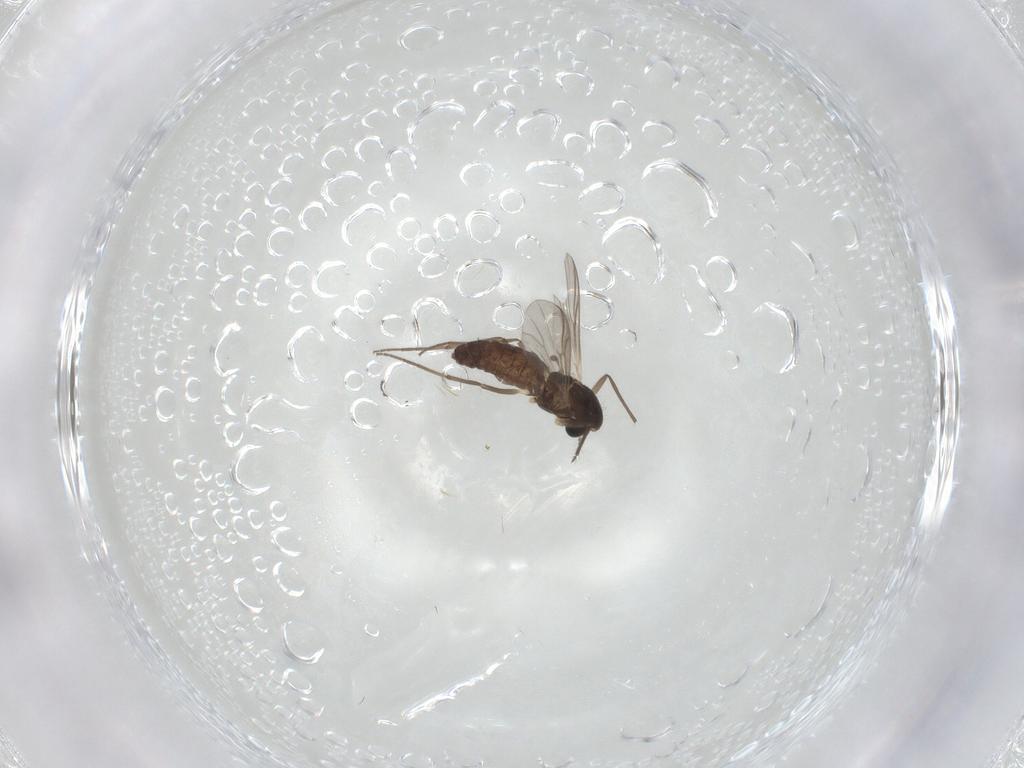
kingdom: Animalia
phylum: Arthropoda
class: Insecta
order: Diptera
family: Chironomidae
